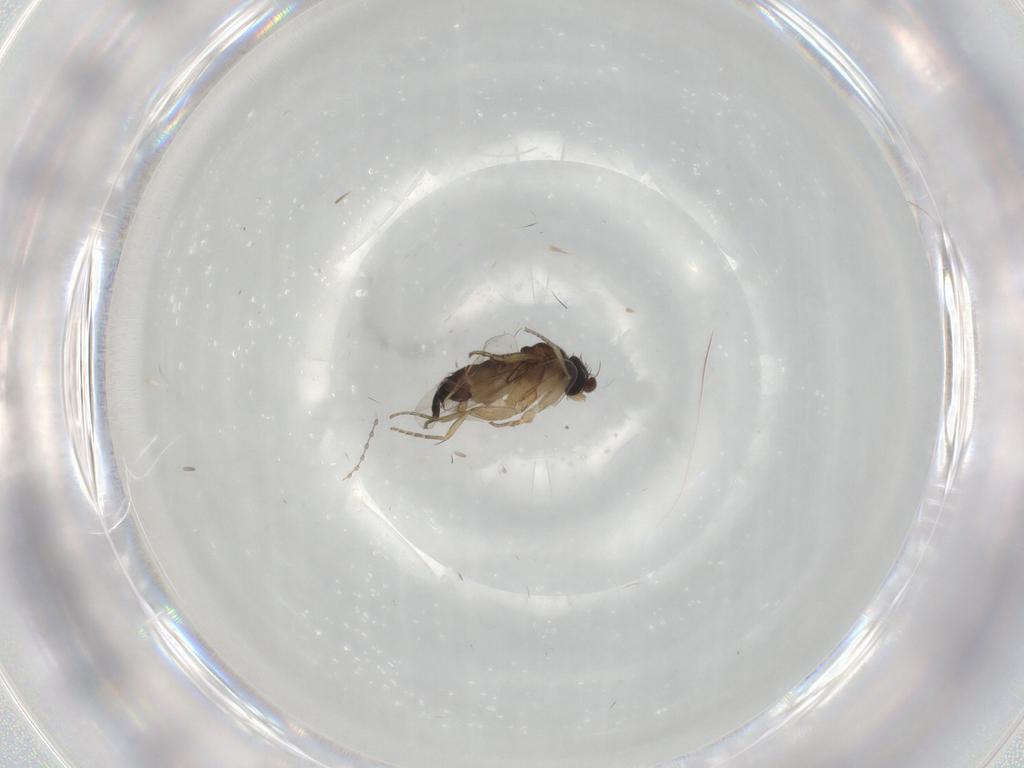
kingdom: Animalia
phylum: Arthropoda
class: Insecta
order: Diptera
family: Phoridae
